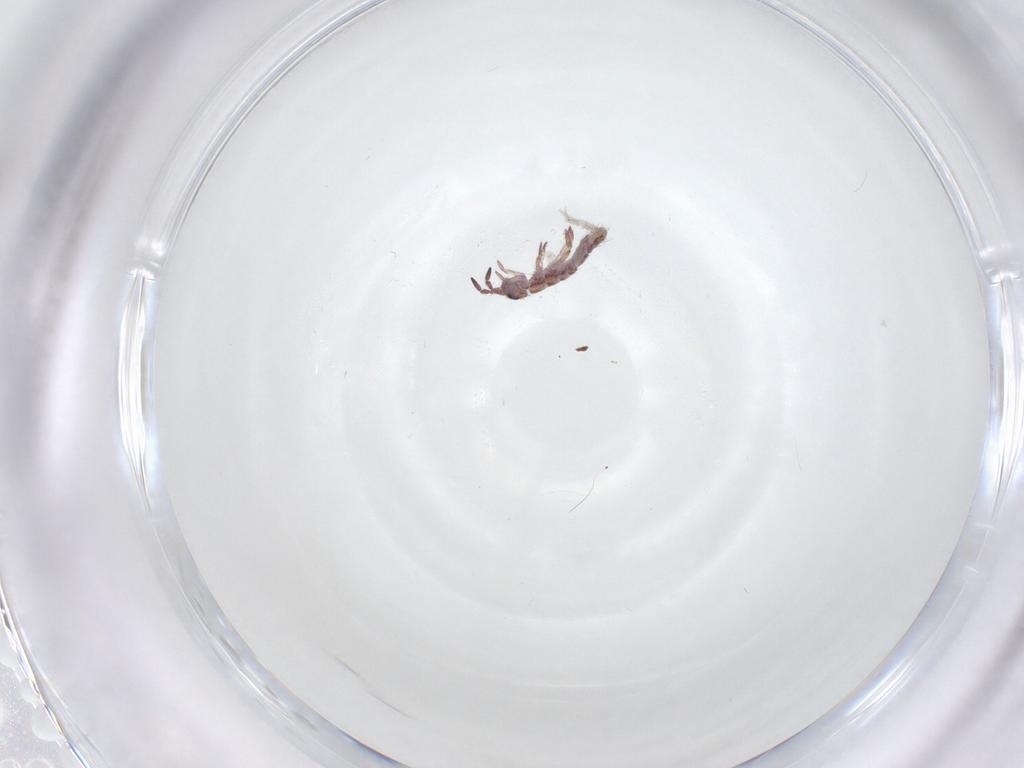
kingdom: Animalia
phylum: Arthropoda
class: Collembola
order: Entomobryomorpha
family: Isotomidae
